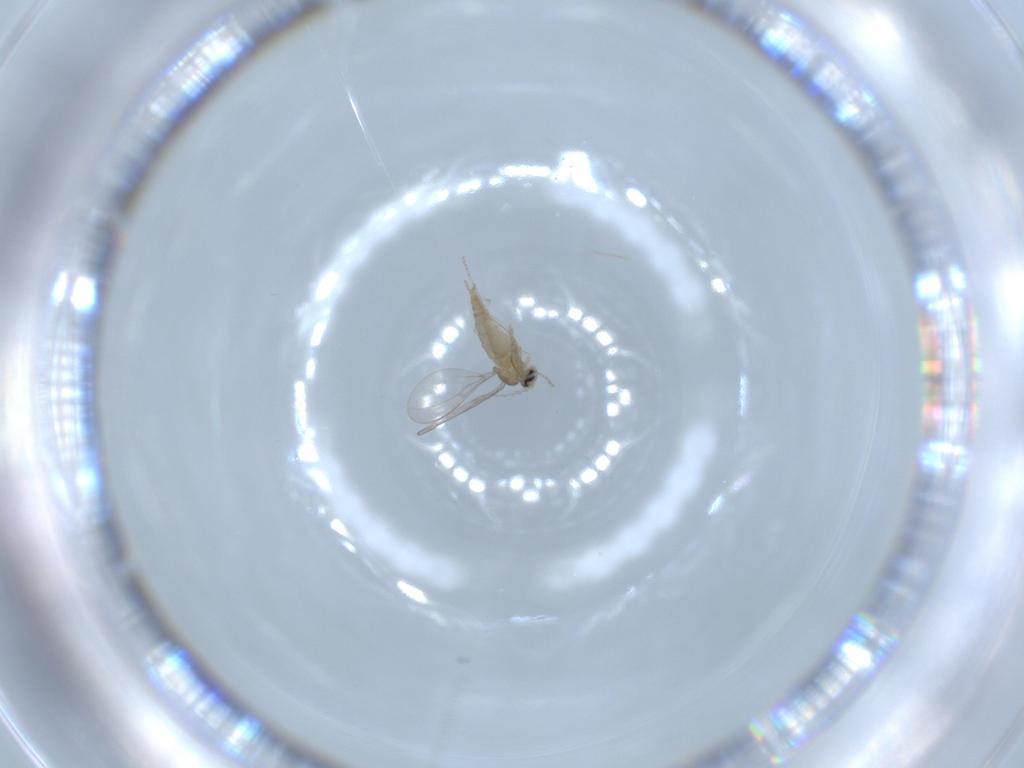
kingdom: Animalia
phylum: Arthropoda
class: Insecta
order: Diptera
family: Cecidomyiidae
